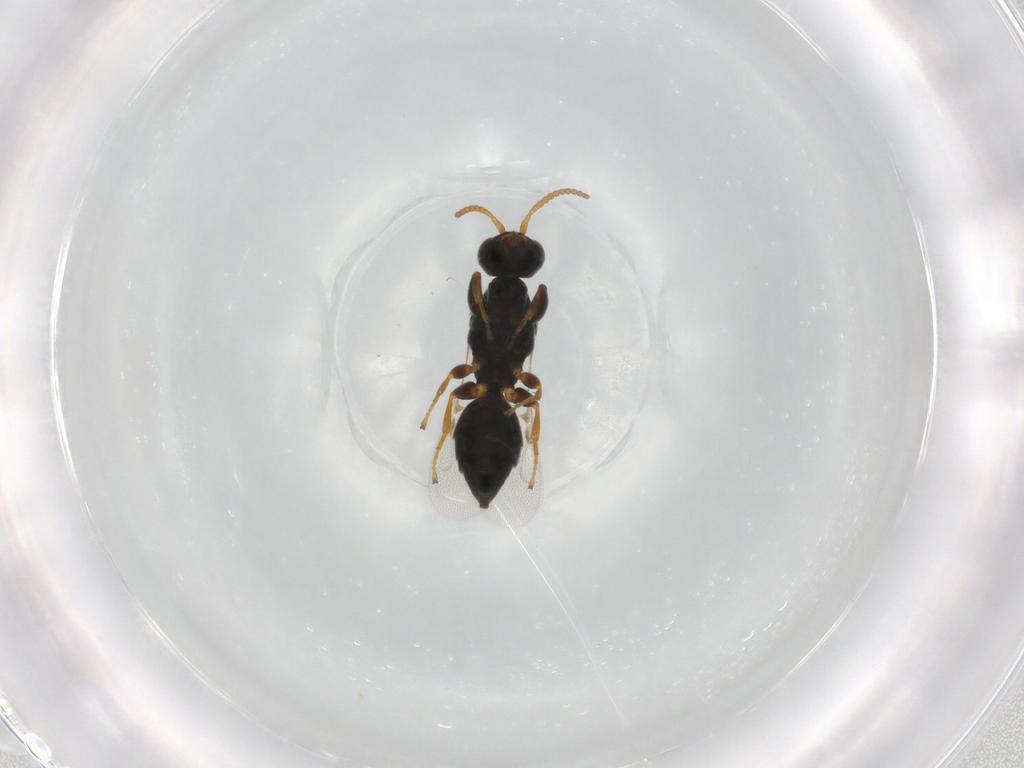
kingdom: Animalia
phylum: Arthropoda
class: Insecta
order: Hymenoptera
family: Bethylidae
